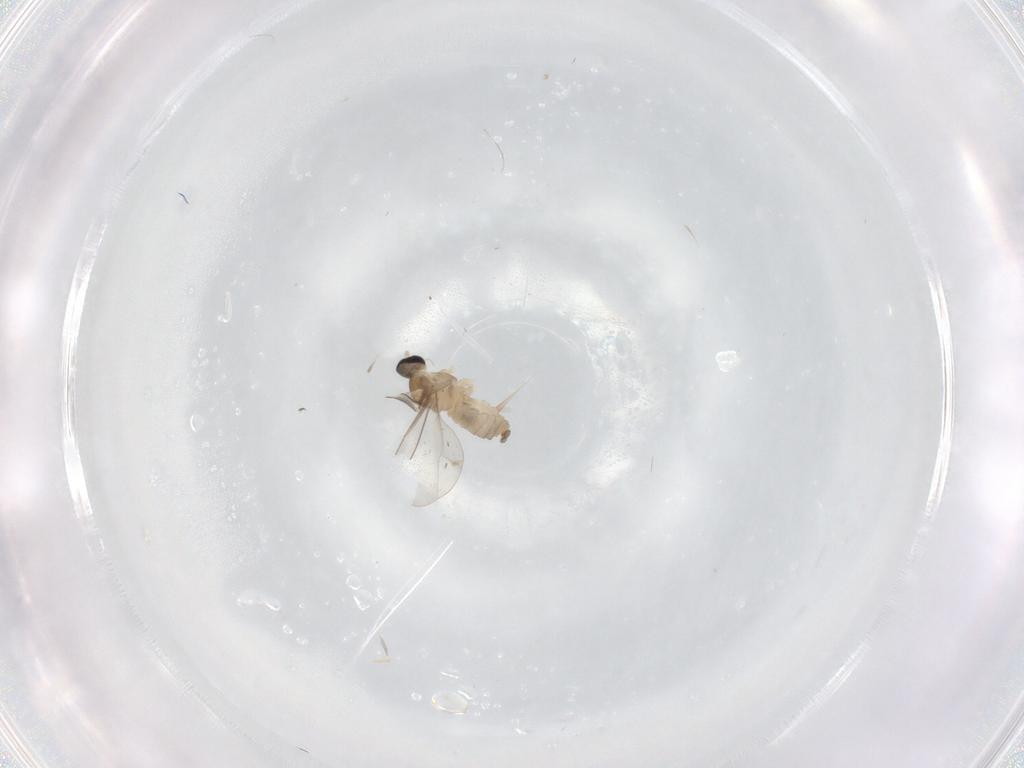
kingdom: Animalia
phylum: Arthropoda
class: Insecta
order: Diptera
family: Cecidomyiidae
